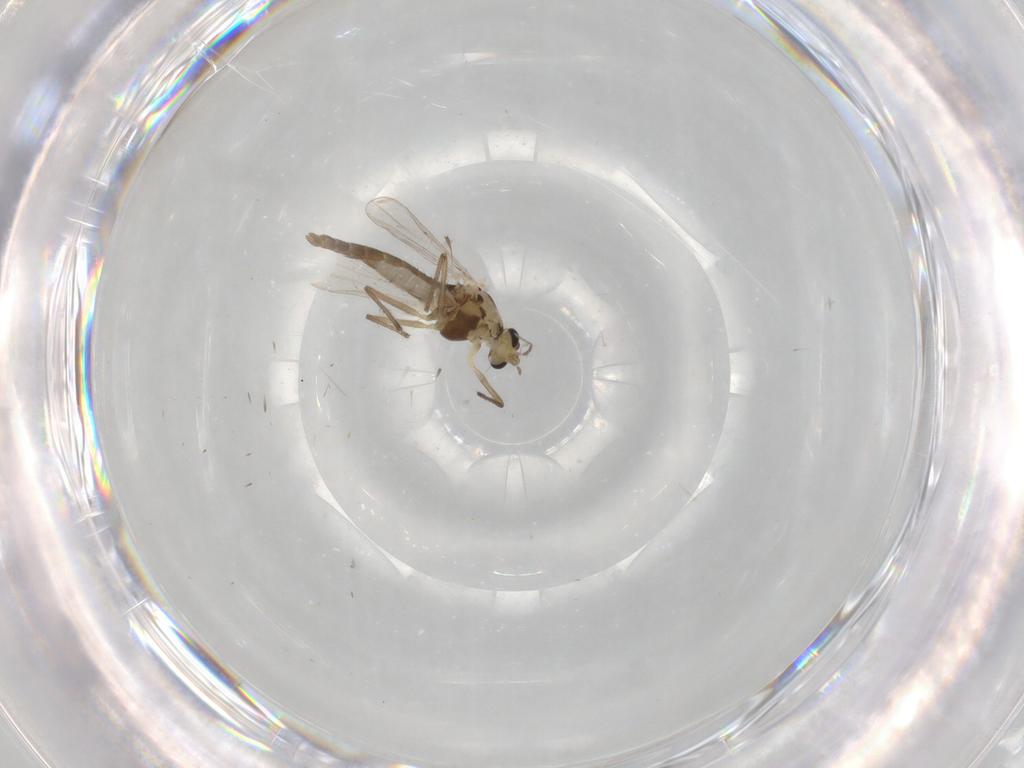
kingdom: Animalia
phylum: Arthropoda
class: Insecta
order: Diptera
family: Chironomidae
